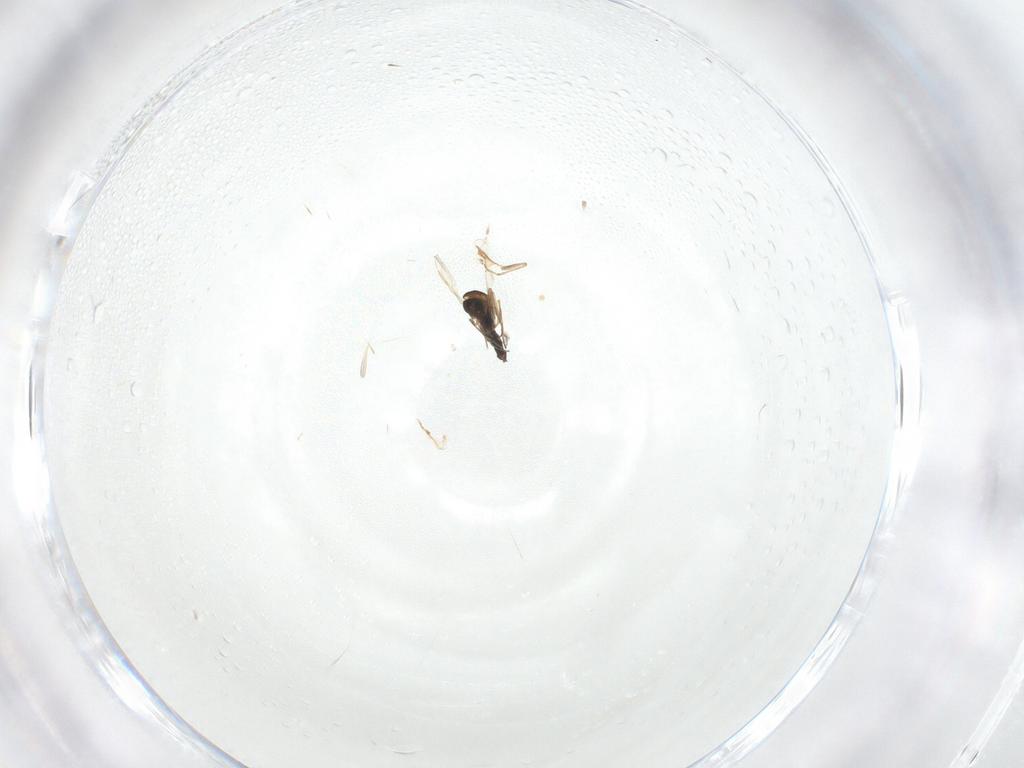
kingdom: Animalia
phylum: Arthropoda
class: Insecta
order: Diptera
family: Chironomidae
